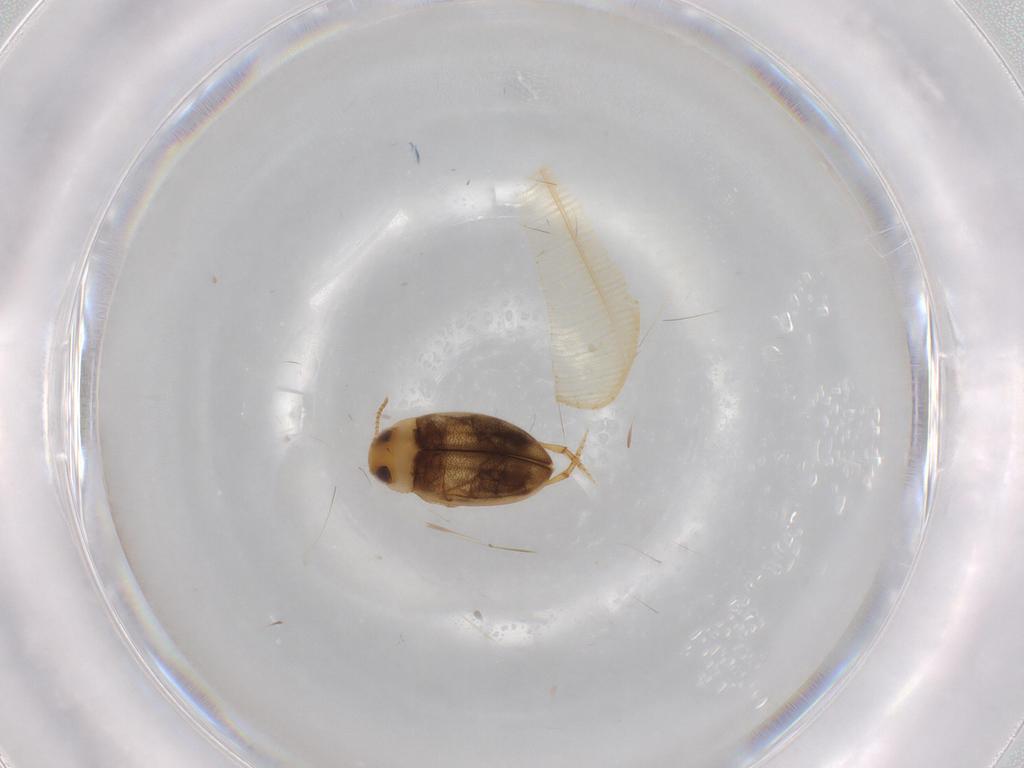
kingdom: Animalia
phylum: Arthropoda
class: Insecta
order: Coleoptera
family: Dytiscidae
